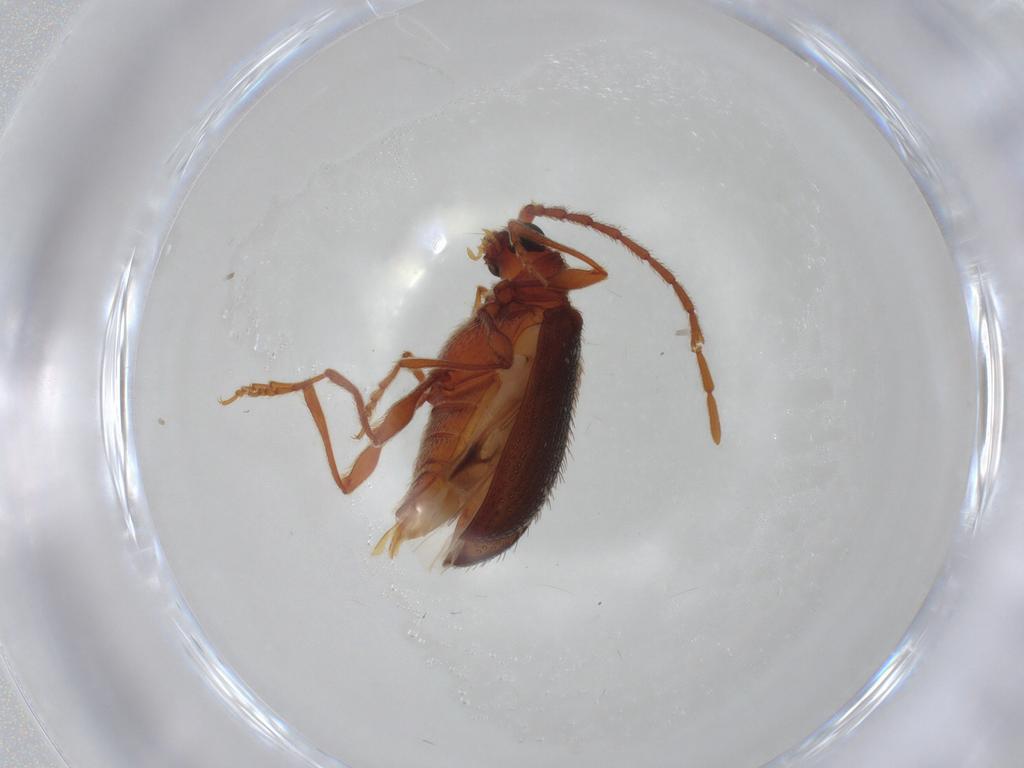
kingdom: Animalia
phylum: Arthropoda
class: Insecta
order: Coleoptera
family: Ptinidae
